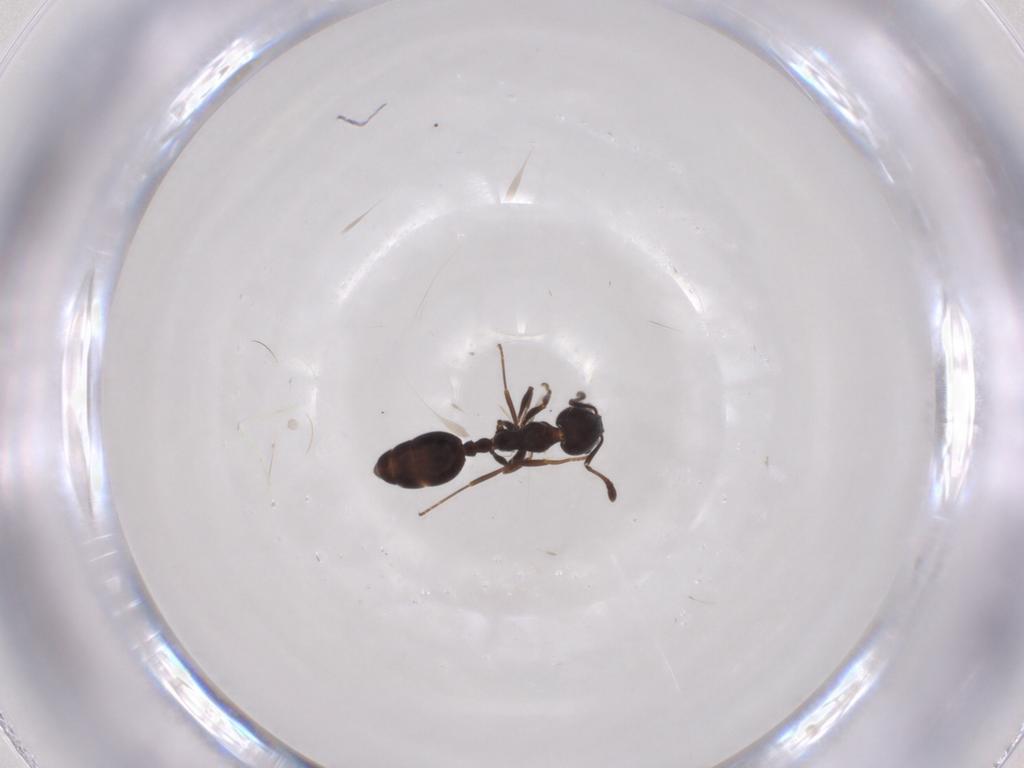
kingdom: Animalia
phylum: Arthropoda
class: Insecta
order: Hymenoptera
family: Formicidae
